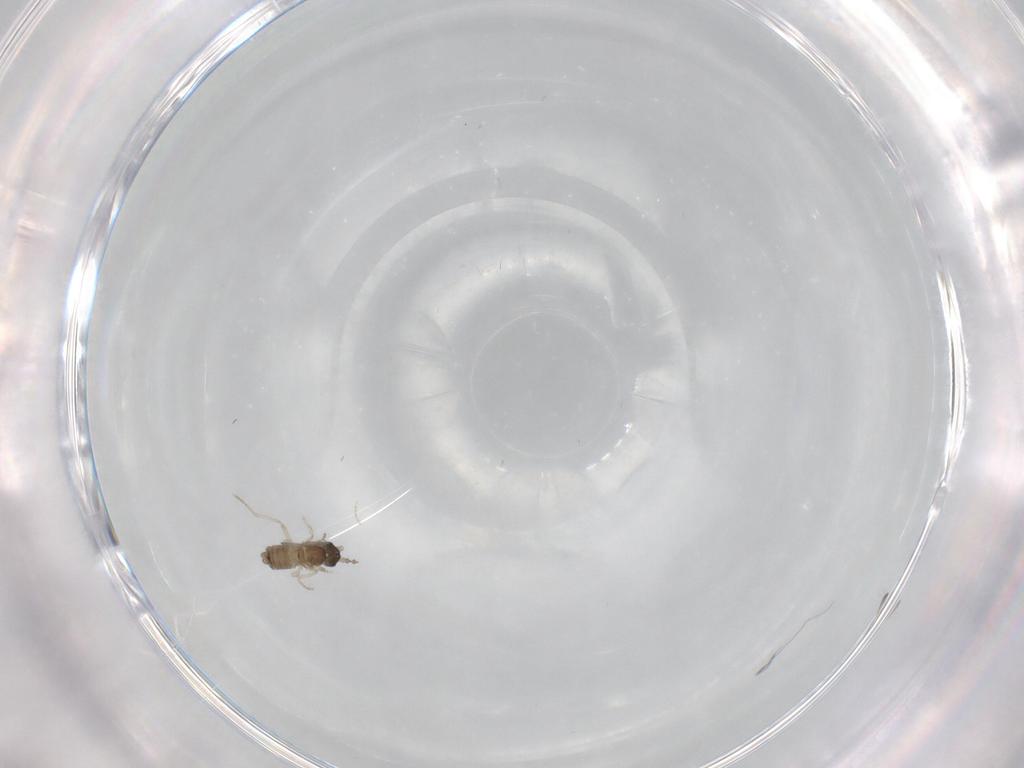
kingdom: Animalia
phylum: Arthropoda
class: Insecta
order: Diptera
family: Cecidomyiidae
